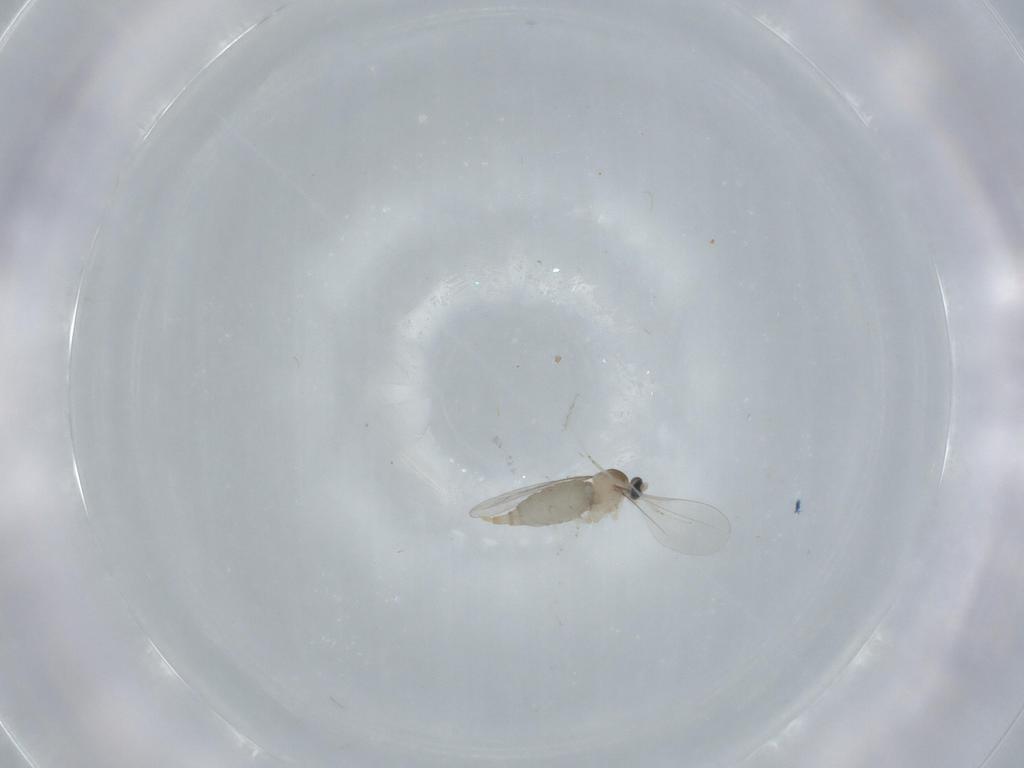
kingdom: Animalia
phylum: Arthropoda
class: Insecta
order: Diptera
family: Cecidomyiidae
